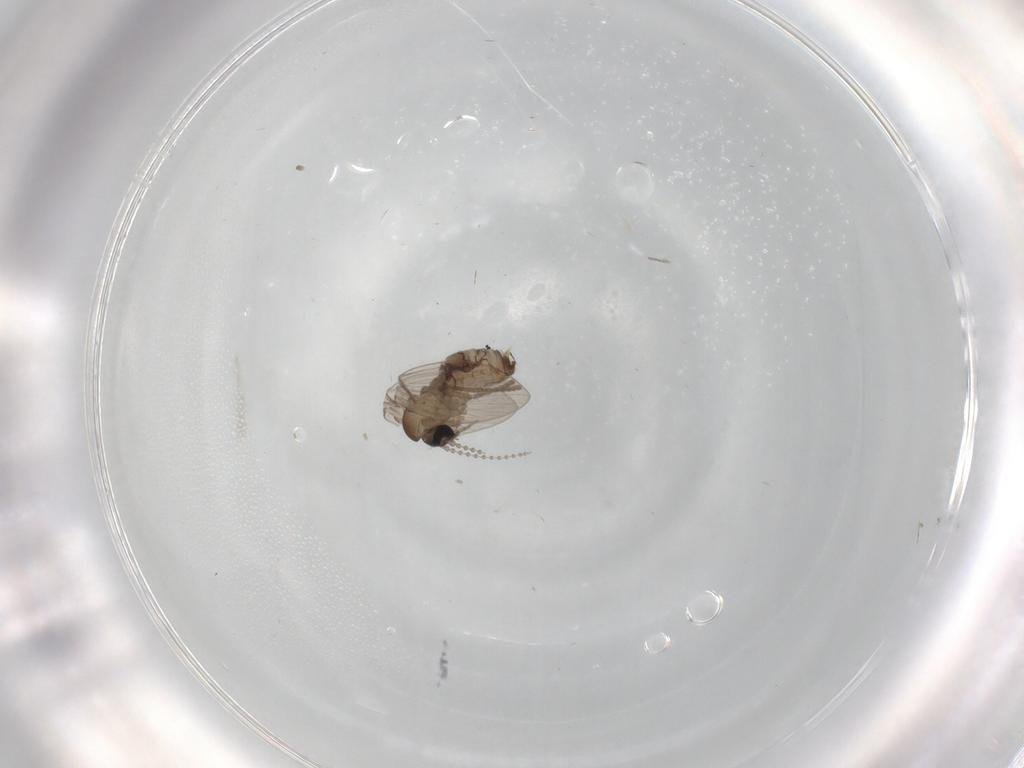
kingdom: Animalia
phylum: Arthropoda
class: Insecta
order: Diptera
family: Psychodidae
